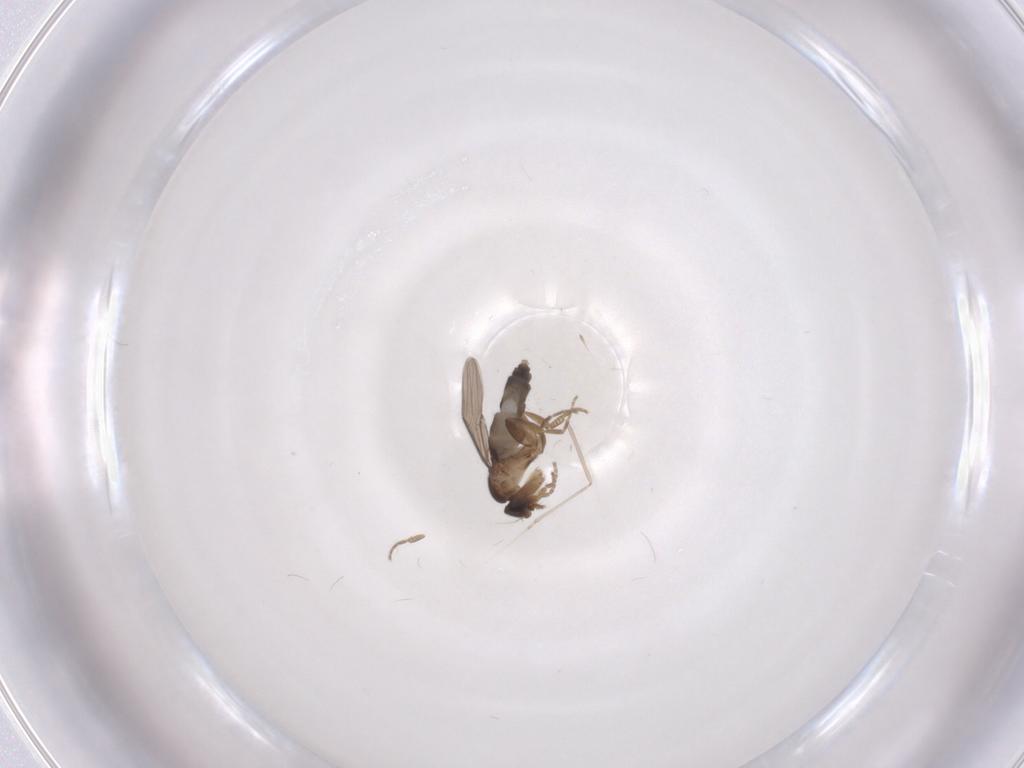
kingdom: Animalia
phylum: Arthropoda
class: Insecta
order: Diptera
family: Phoridae
